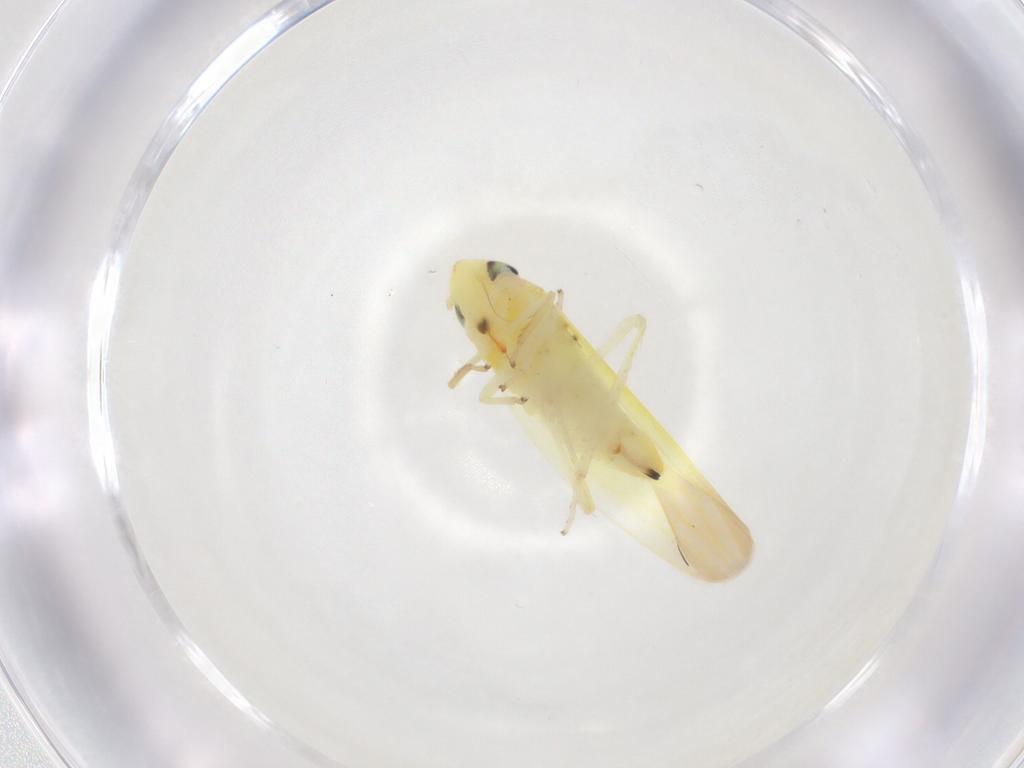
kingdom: Animalia
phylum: Arthropoda
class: Insecta
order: Hemiptera
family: Cicadellidae
